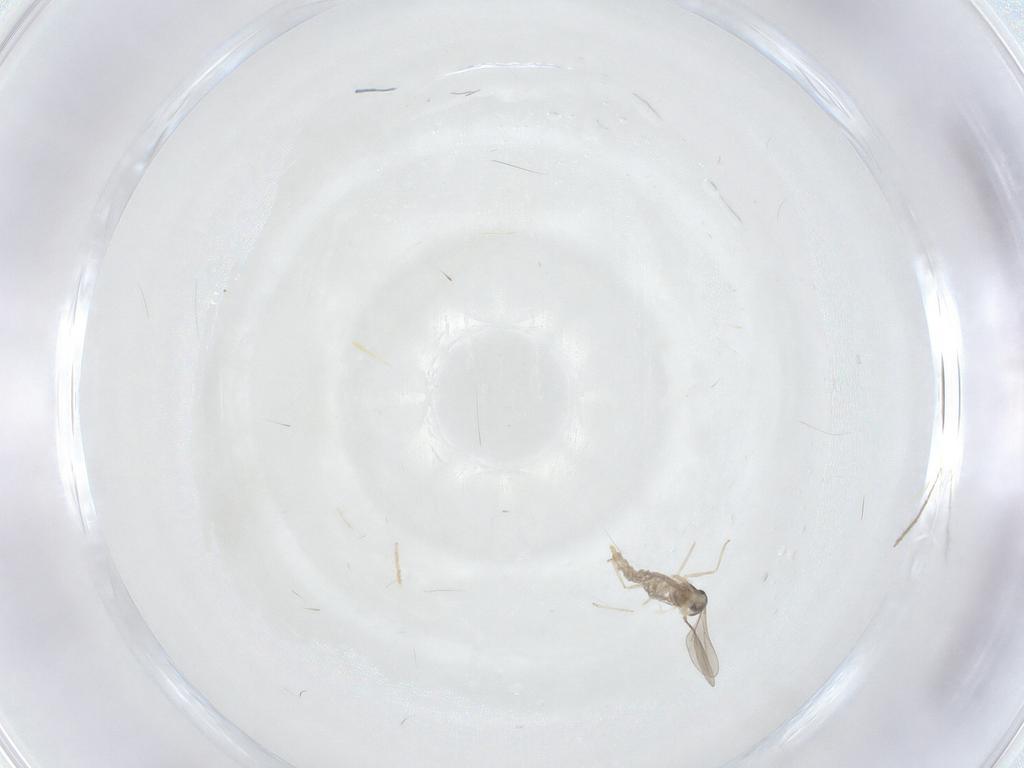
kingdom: Animalia
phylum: Arthropoda
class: Insecta
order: Diptera
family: Chironomidae
